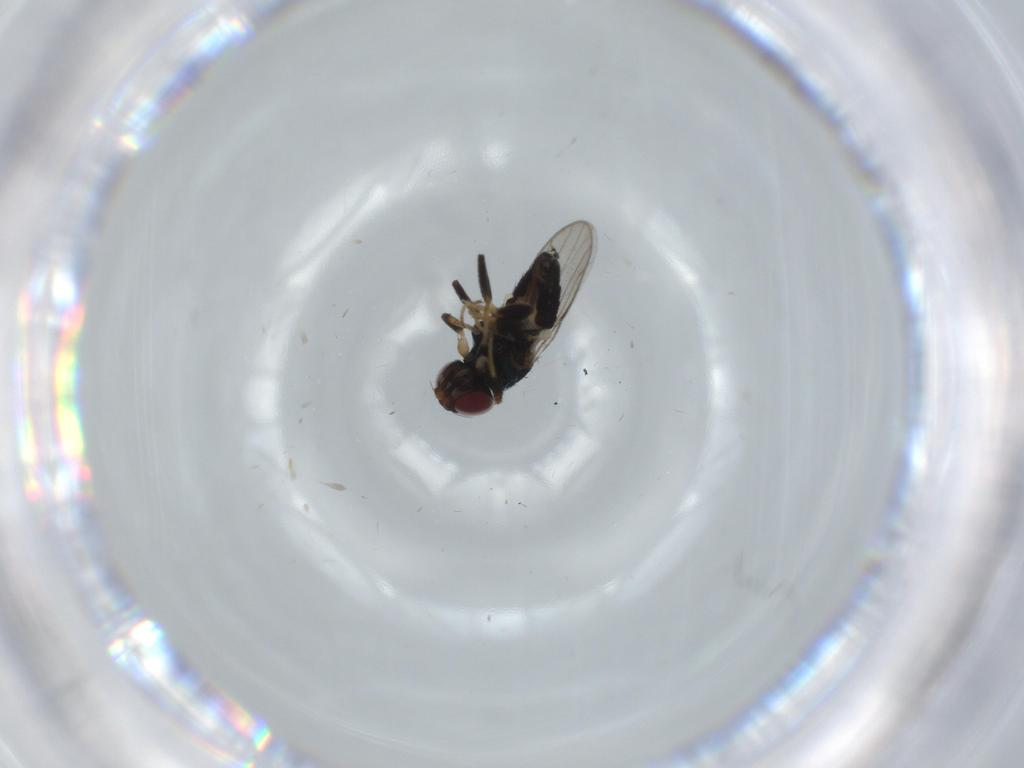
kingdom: Animalia
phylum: Arthropoda
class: Insecta
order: Diptera
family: Chloropidae
